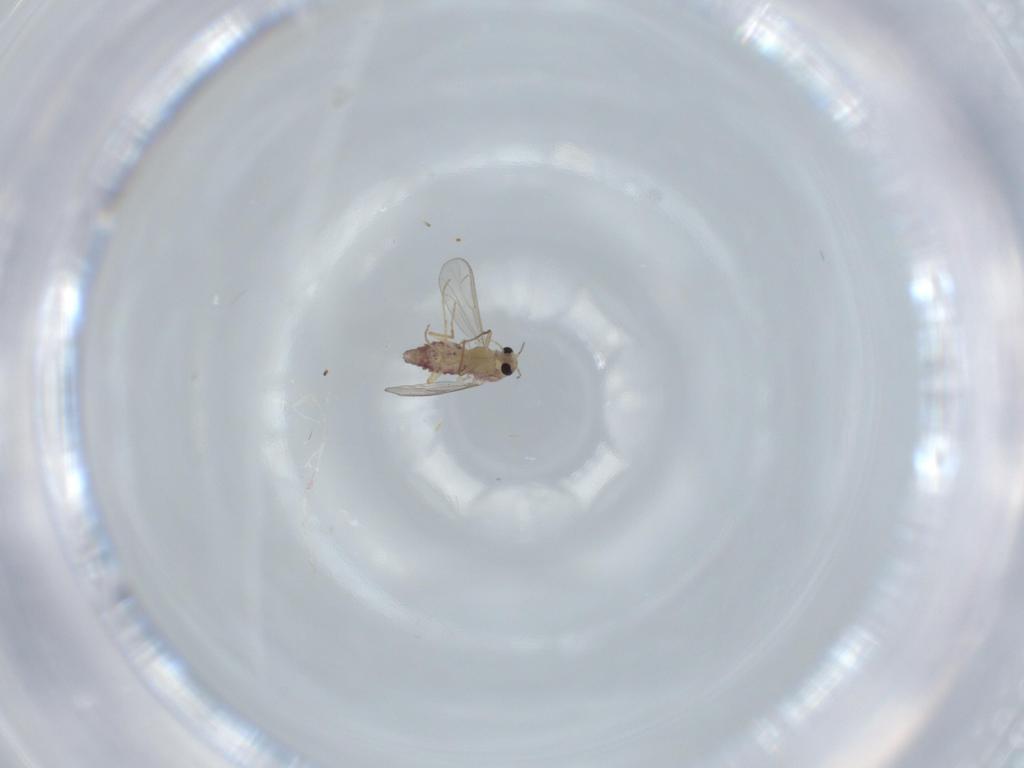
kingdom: Animalia
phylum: Arthropoda
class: Insecta
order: Diptera
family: Chironomidae
